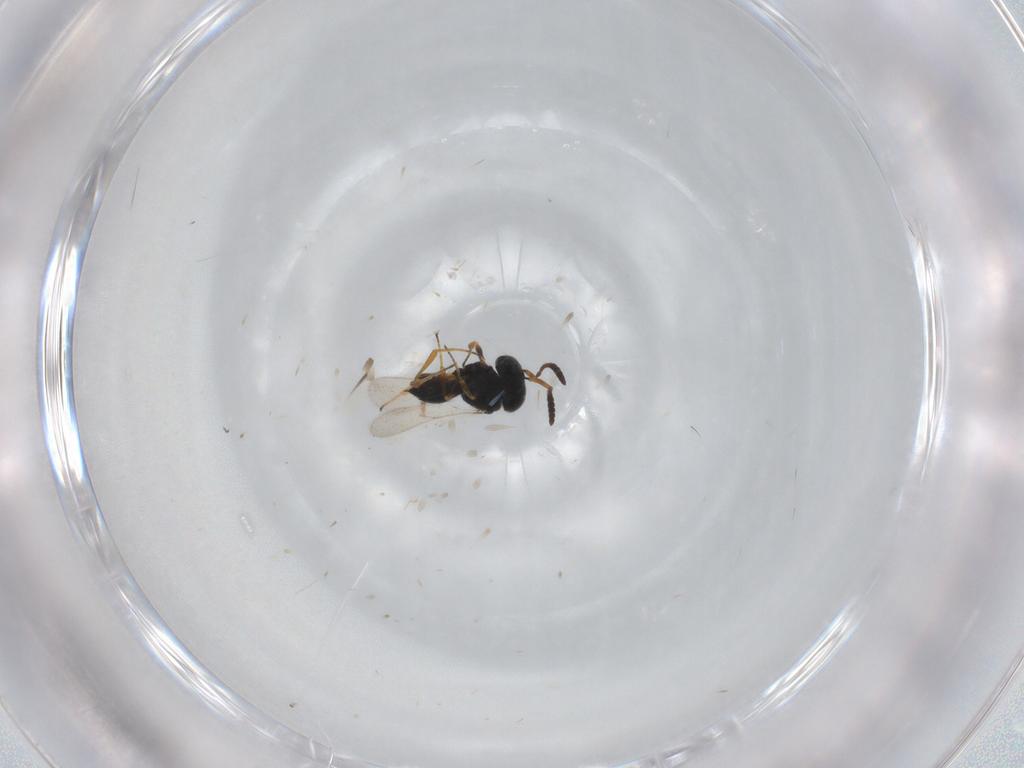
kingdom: Animalia
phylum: Arthropoda
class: Insecta
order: Hymenoptera
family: Scelionidae
